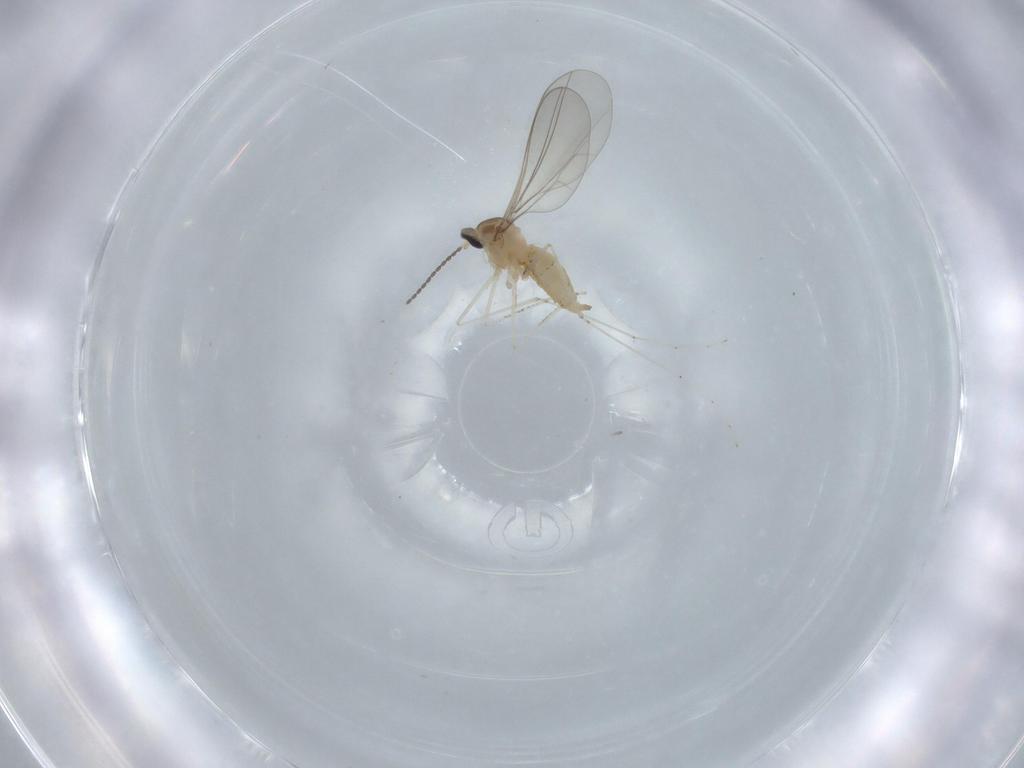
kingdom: Animalia
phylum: Arthropoda
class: Insecta
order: Diptera
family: Cecidomyiidae
